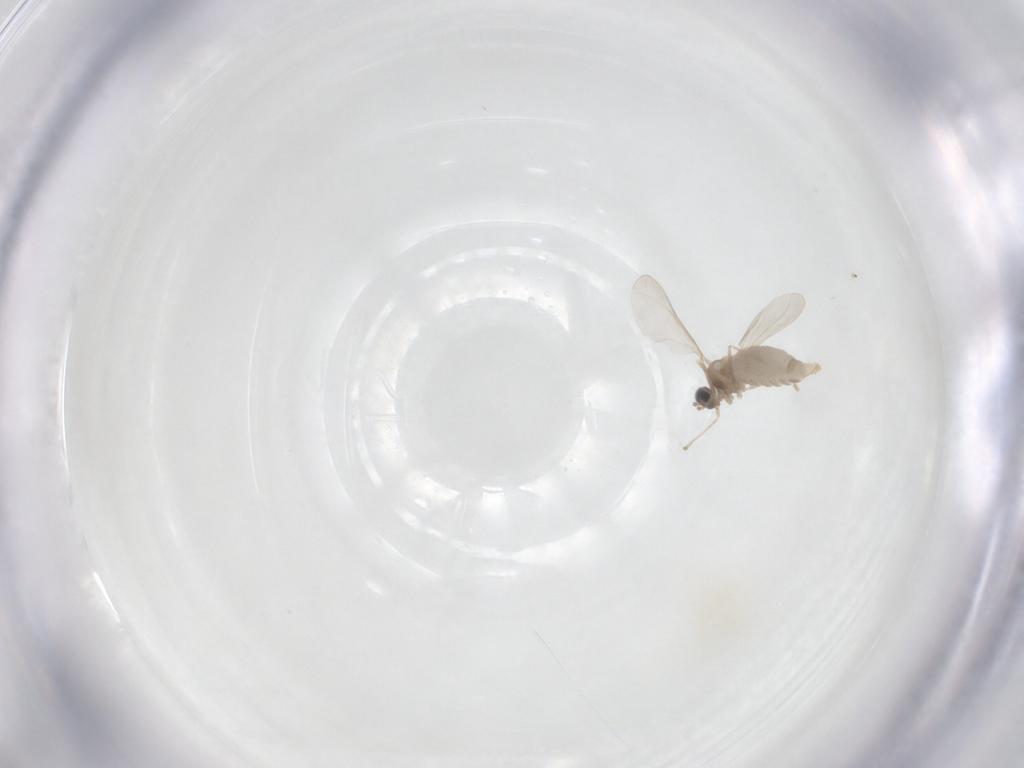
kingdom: Animalia
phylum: Arthropoda
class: Insecta
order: Diptera
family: Cecidomyiidae
